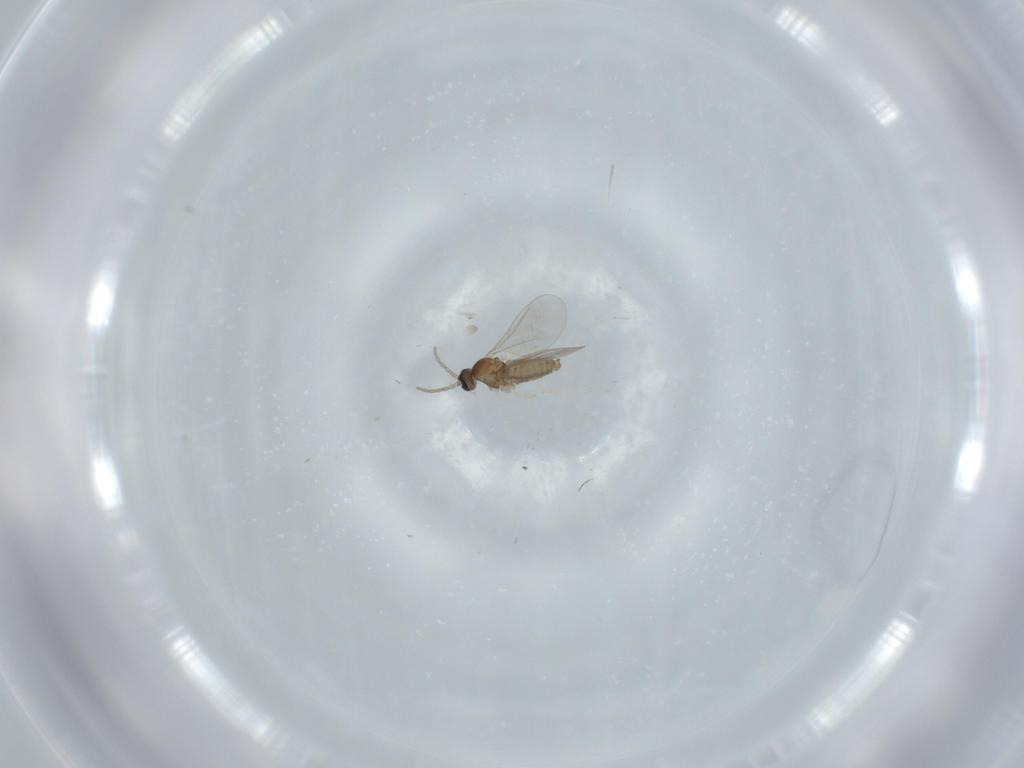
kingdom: Animalia
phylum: Arthropoda
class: Insecta
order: Diptera
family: Cecidomyiidae
